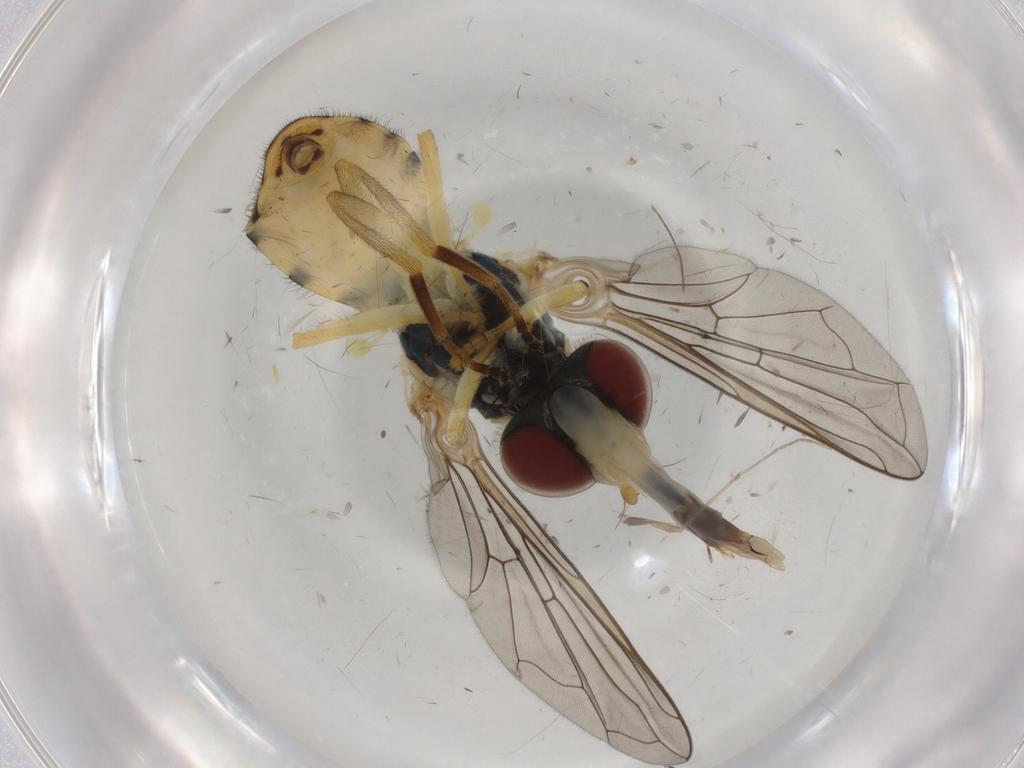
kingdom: Animalia
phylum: Arthropoda
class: Insecta
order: Diptera
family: Syrphidae
